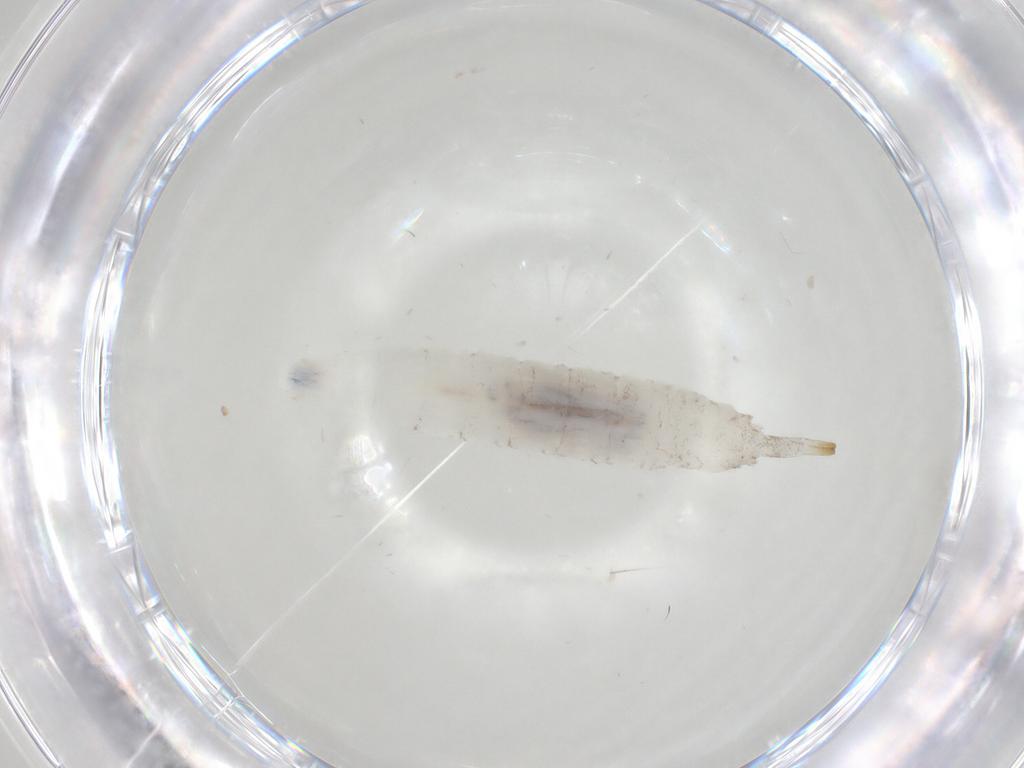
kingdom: Animalia
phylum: Arthropoda
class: Insecta
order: Diptera
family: Drosophilidae
